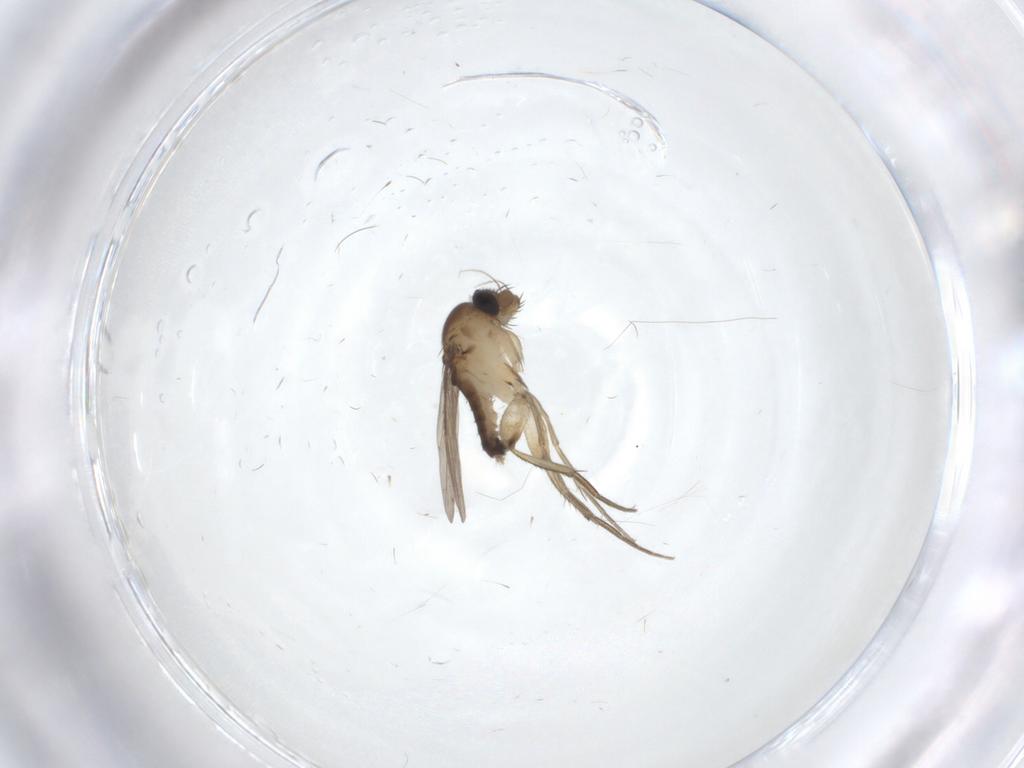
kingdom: Animalia
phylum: Arthropoda
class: Insecta
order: Diptera
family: Phoridae
